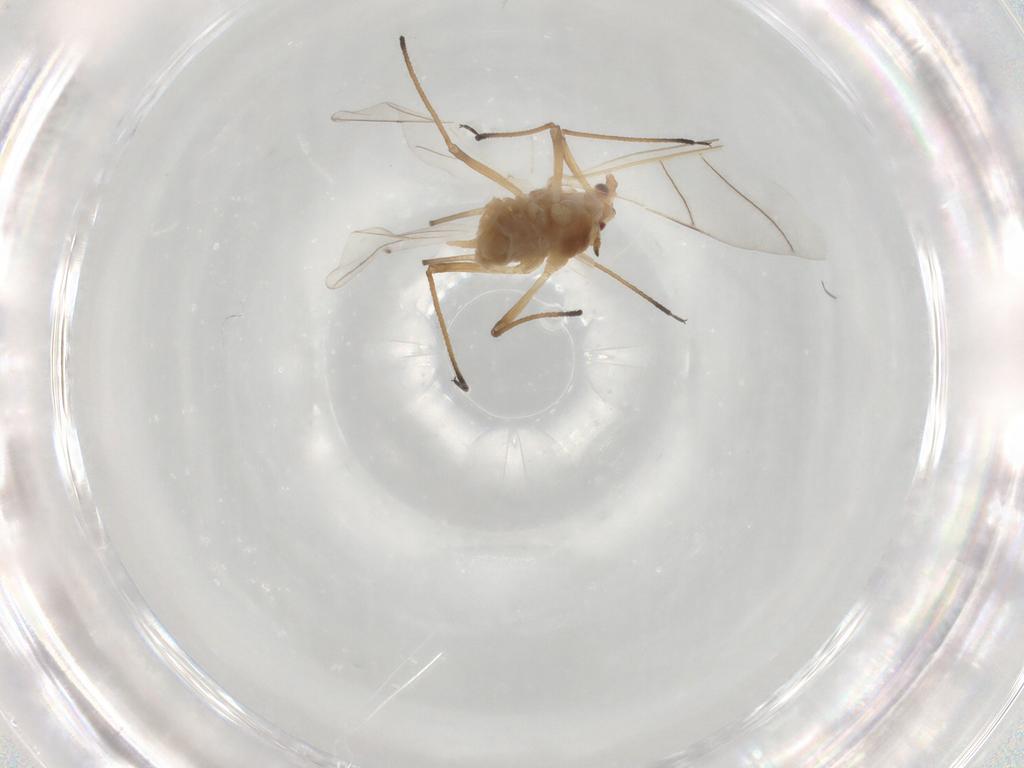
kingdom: Animalia
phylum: Arthropoda
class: Insecta
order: Hemiptera
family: Aphididae
